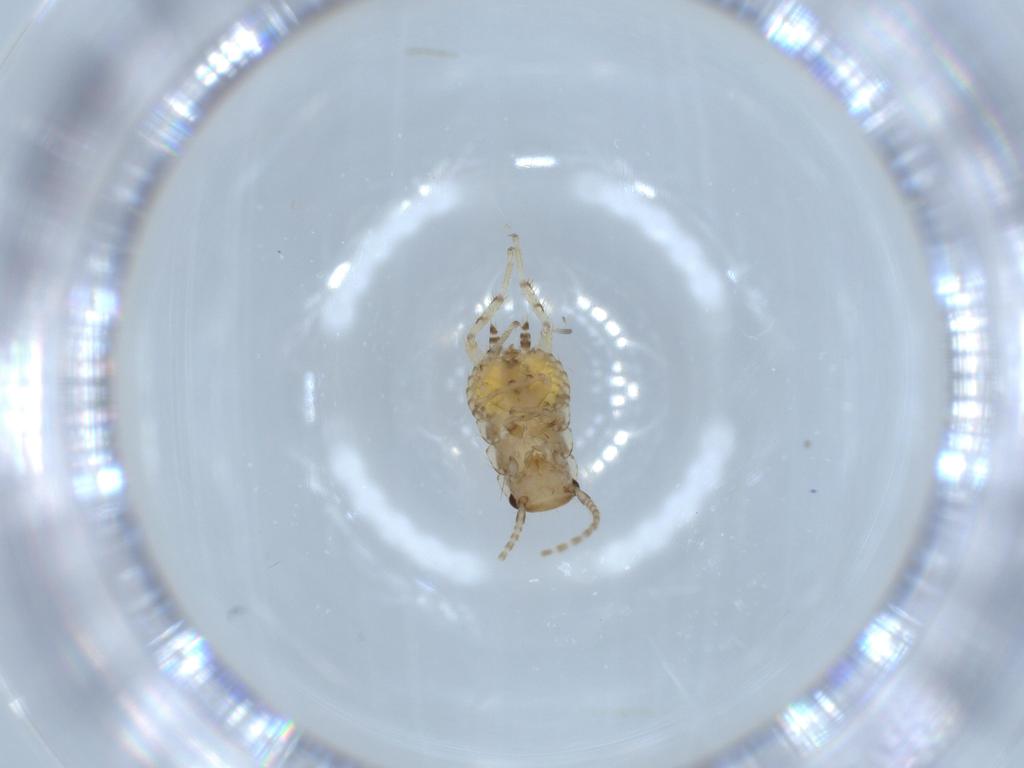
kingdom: Animalia
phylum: Arthropoda
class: Insecta
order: Blattodea
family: Ectobiidae
